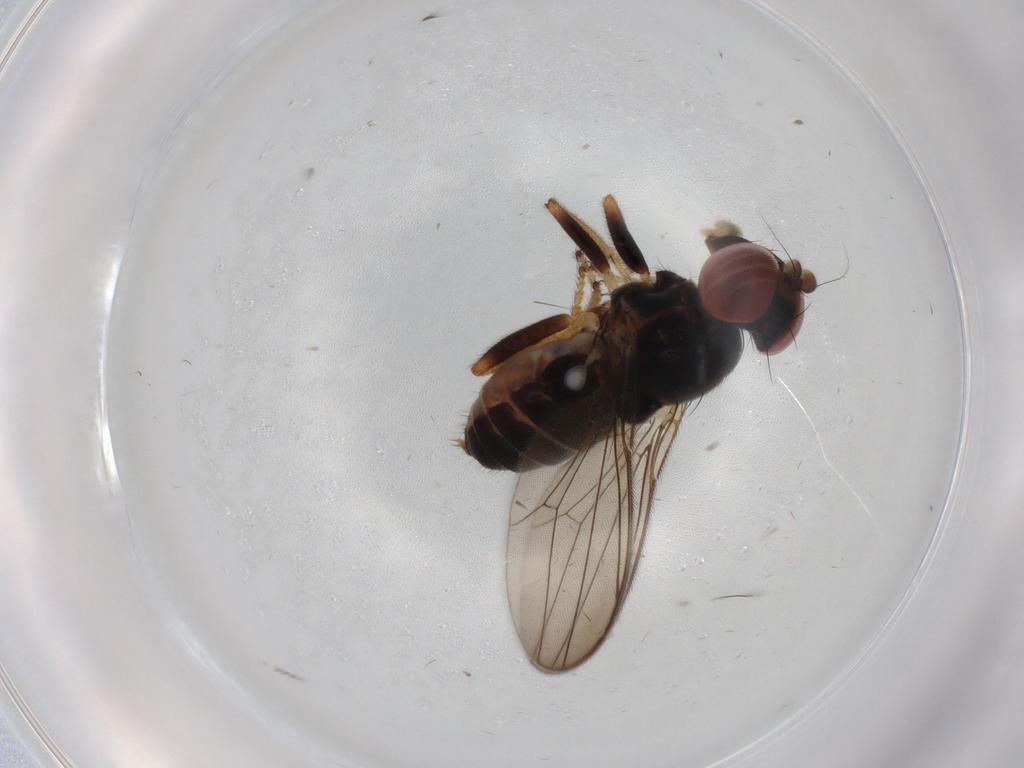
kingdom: Animalia
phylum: Arthropoda
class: Insecta
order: Diptera
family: Aulacigastridae
